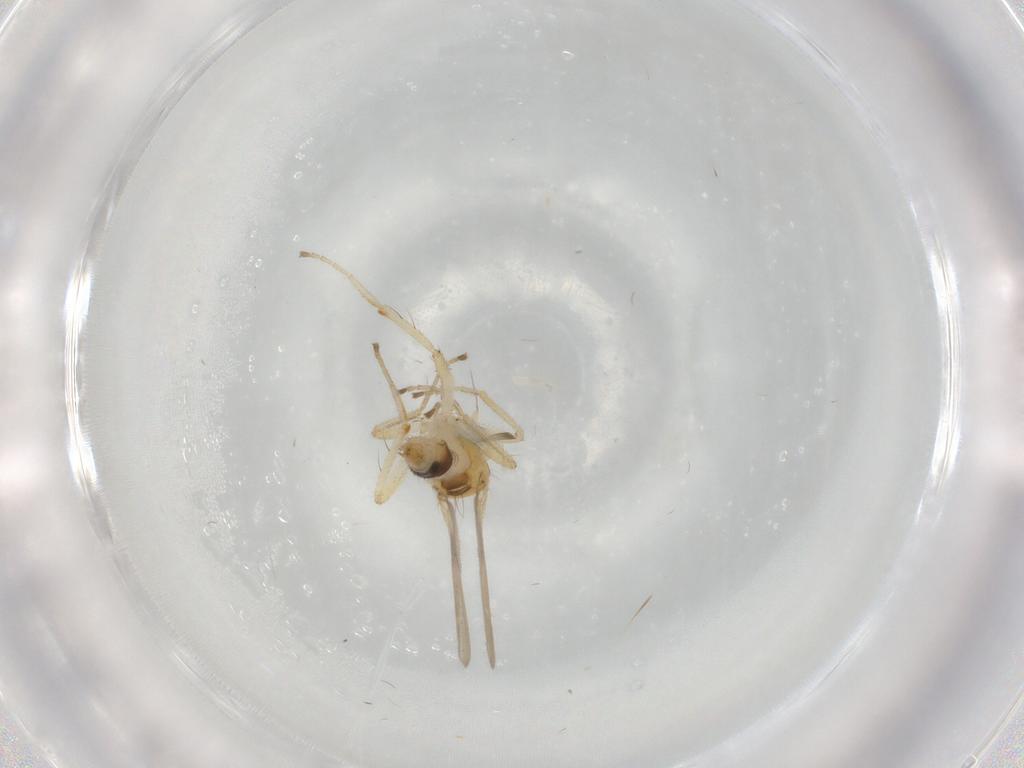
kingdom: Animalia
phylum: Arthropoda
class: Insecta
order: Diptera
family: Hybotidae
